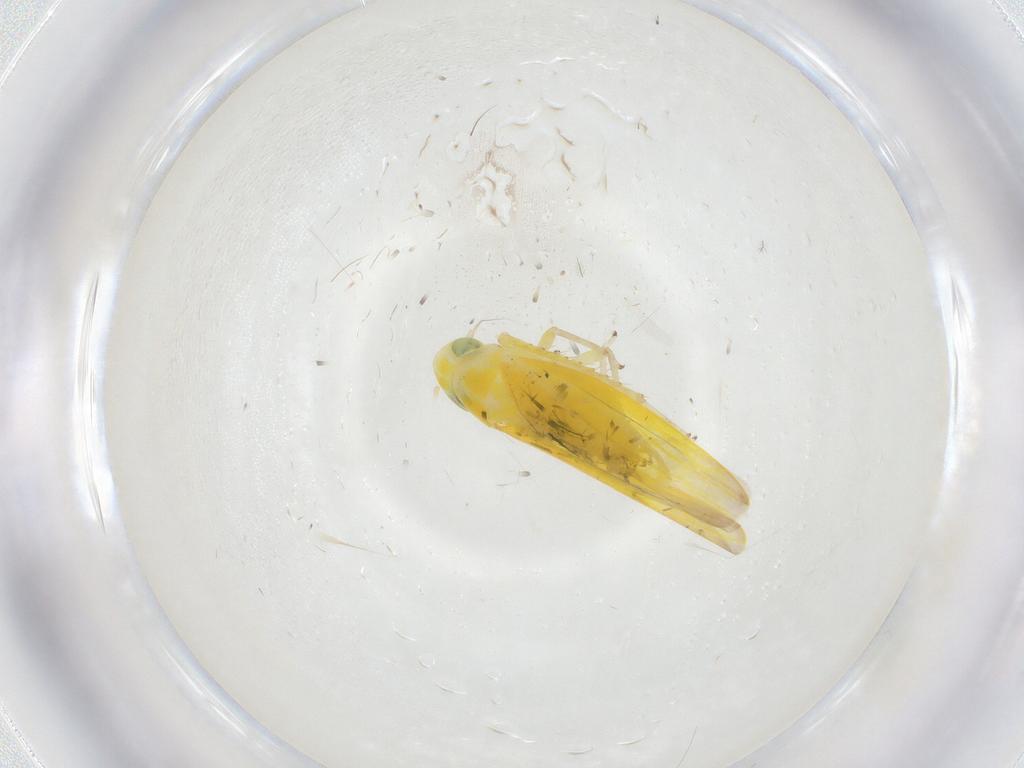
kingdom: Animalia
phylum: Arthropoda
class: Insecta
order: Hemiptera
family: Cicadellidae
